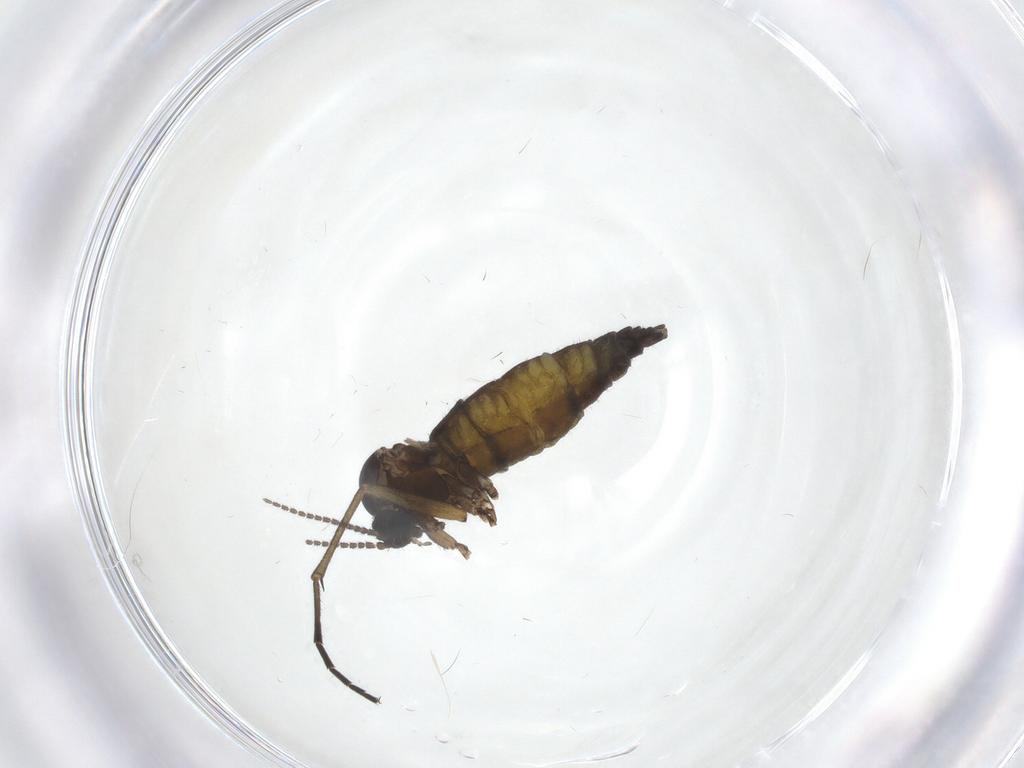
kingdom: Animalia
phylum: Arthropoda
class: Insecta
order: Diptera
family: Sciaridae
